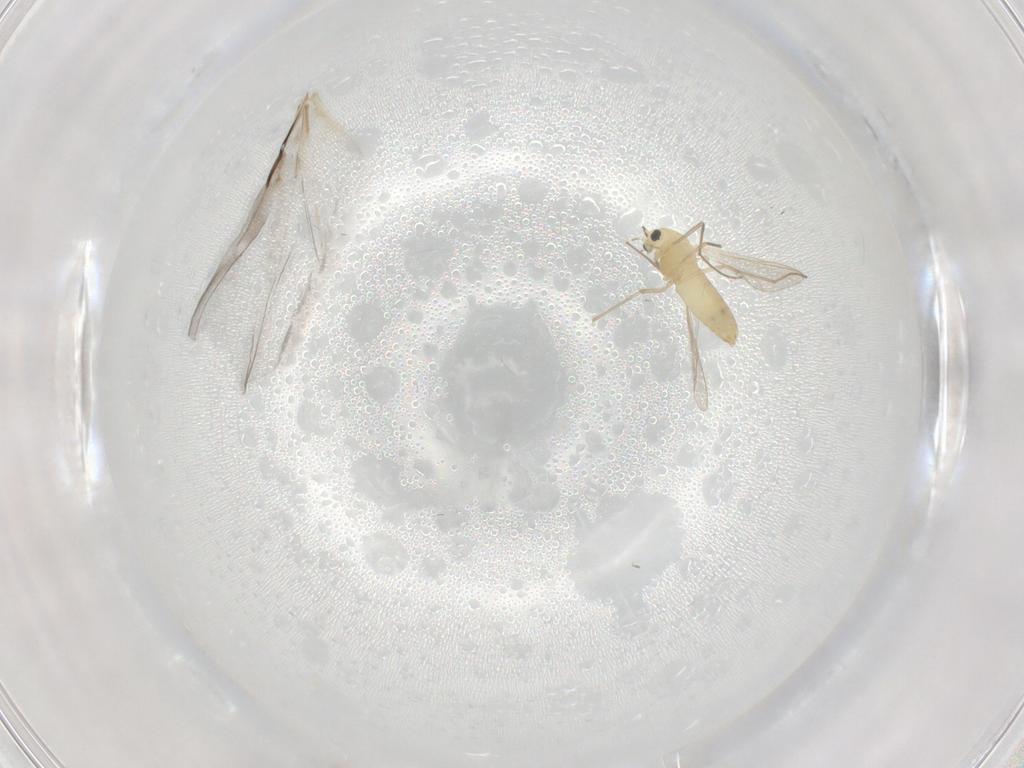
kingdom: Animalia
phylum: Arthropoda
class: Insecta
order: Diptera
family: Chironomidae
